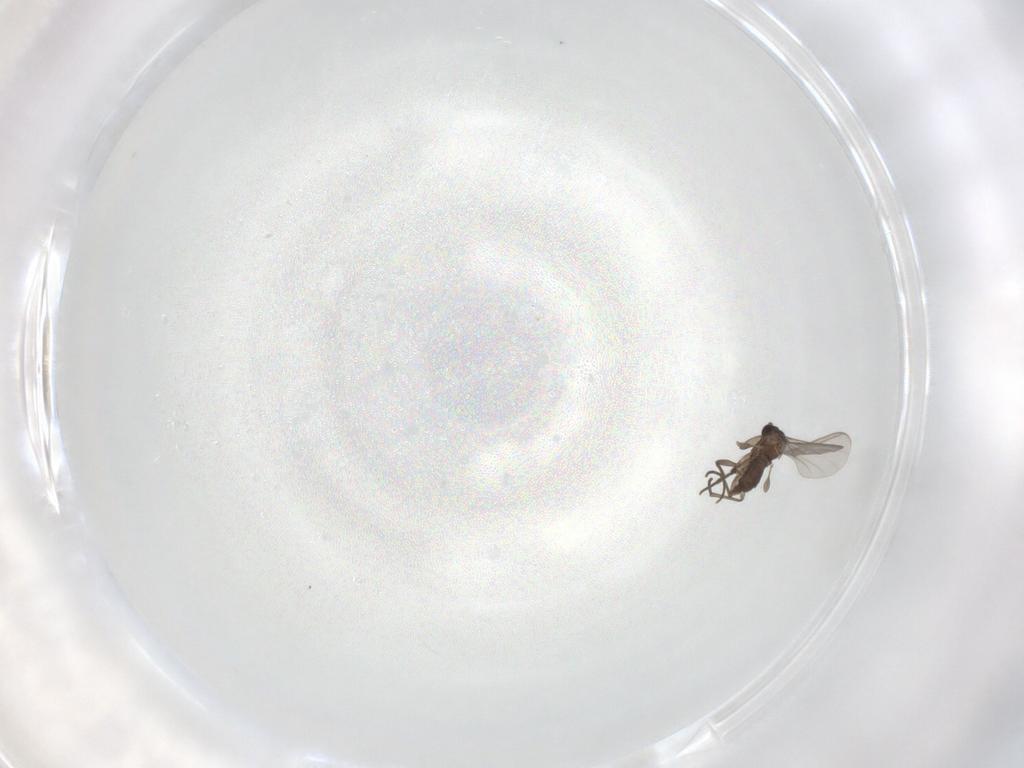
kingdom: Animalia
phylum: Arthropoda
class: Insecta
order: Diptera
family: Sciaridae
